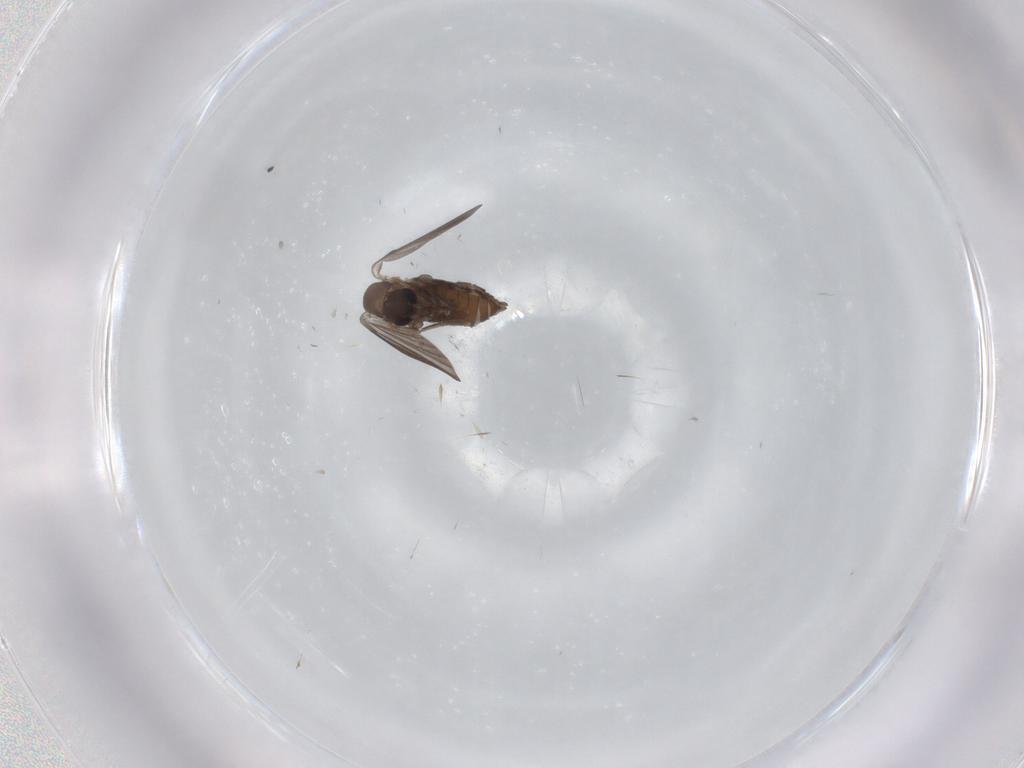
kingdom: Animalia
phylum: Arthropoda
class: Insecta
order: Diptera
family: Cecidomyiidae
